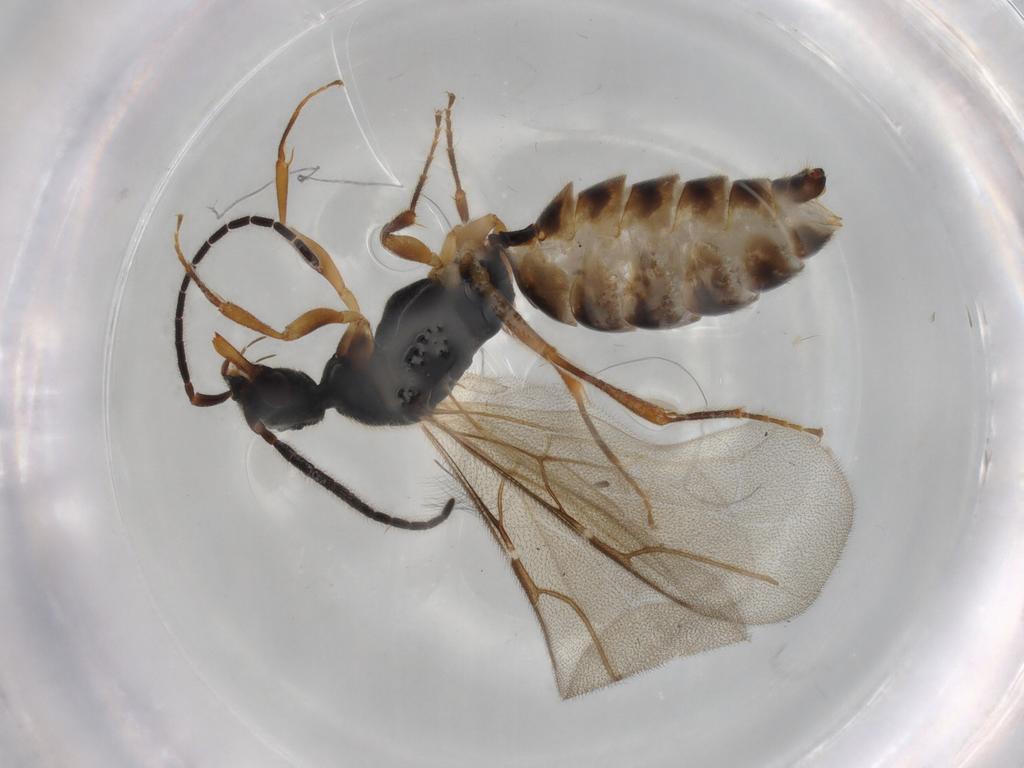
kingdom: Animalia
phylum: Arthropoda
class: Insecta
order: Hymenoptera
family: Bethylidae
